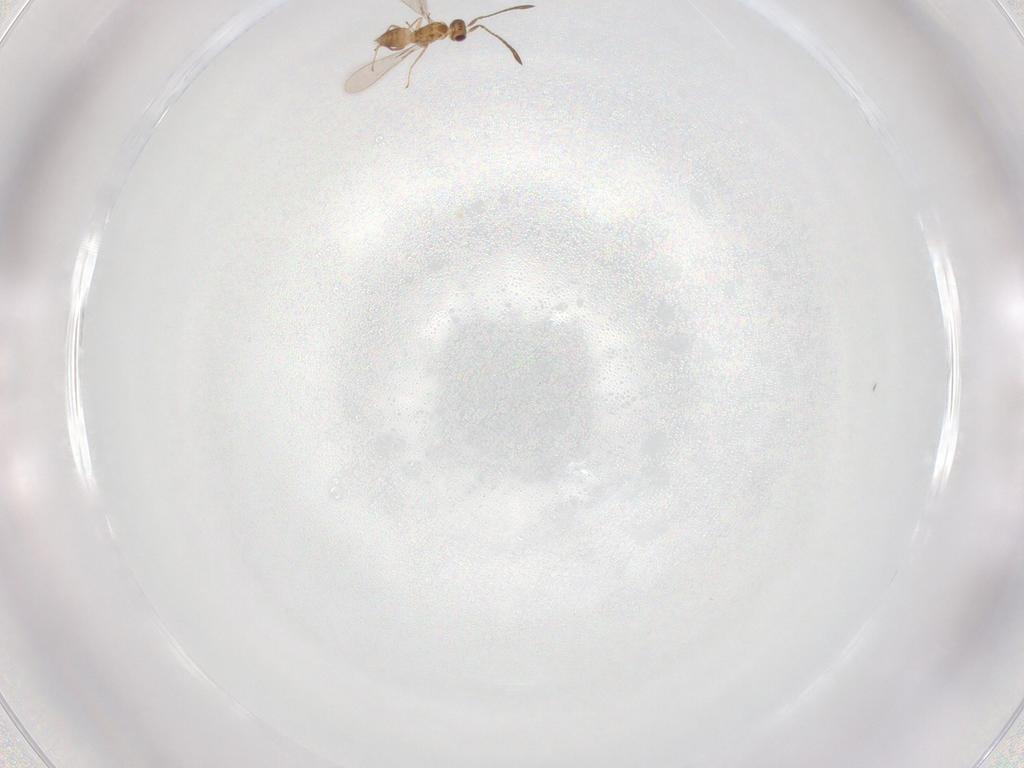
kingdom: Animalia
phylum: Arthropoda
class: Insecta
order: Hymenoptera
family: Mymaridae
